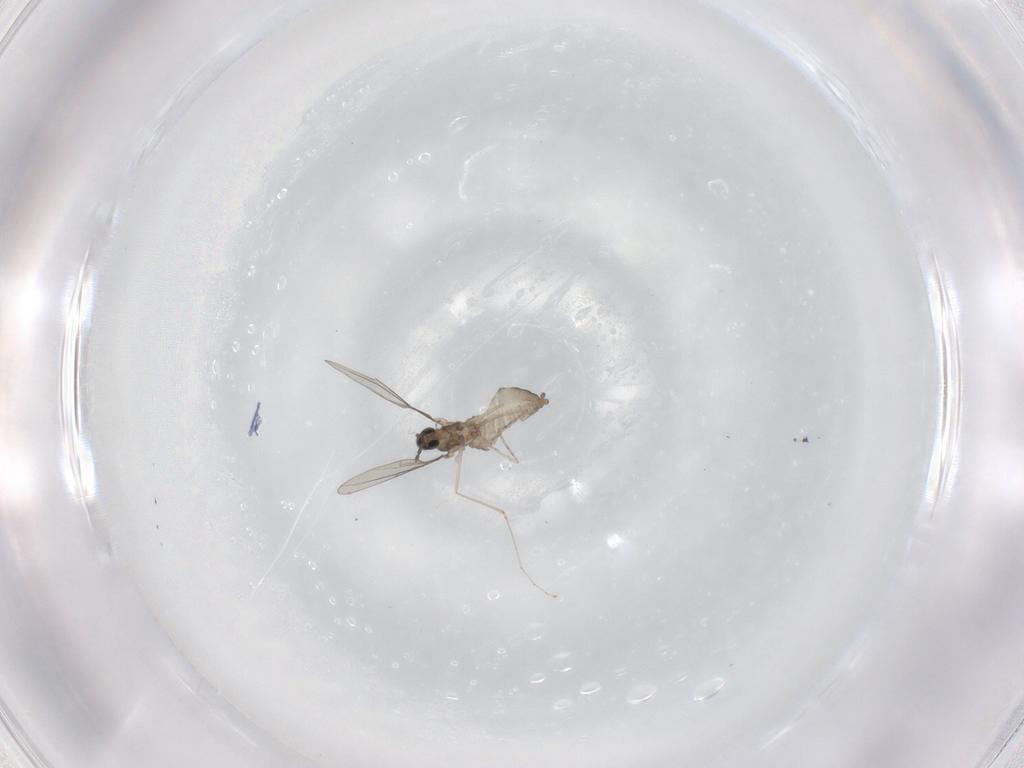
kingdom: Animalia
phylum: Arthropoda
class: Insecta
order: Diptera
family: Cecidomyiidae
